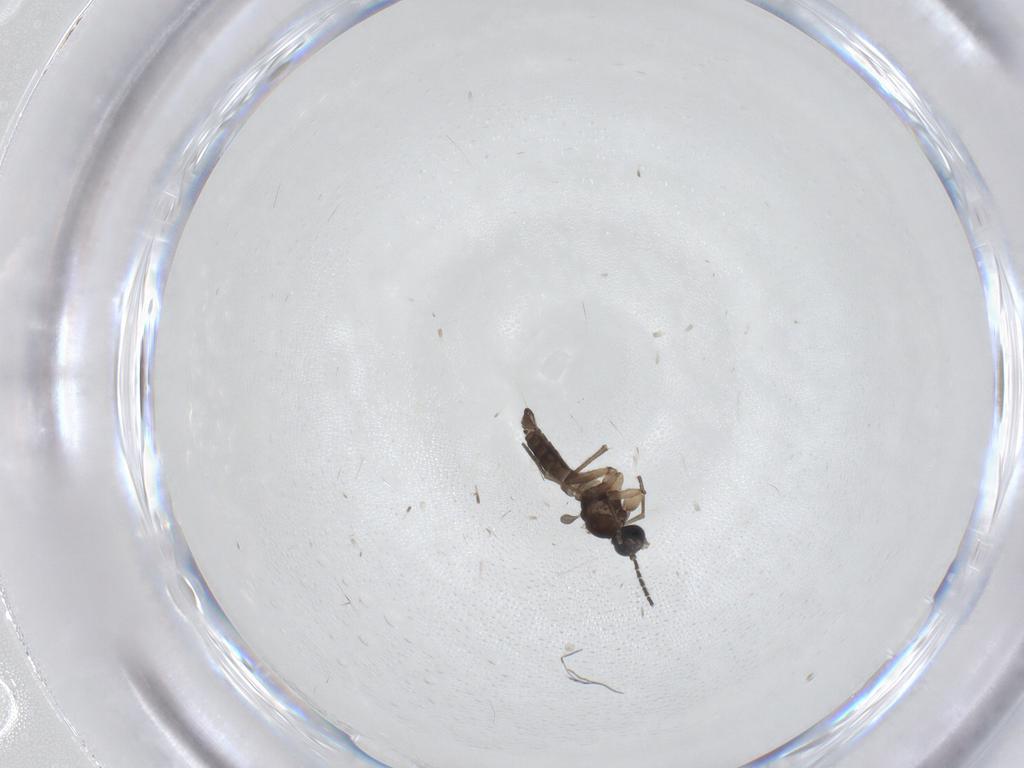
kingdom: Animalia
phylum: Arthropoda
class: Insecta
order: Diptera
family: Sciaridae
